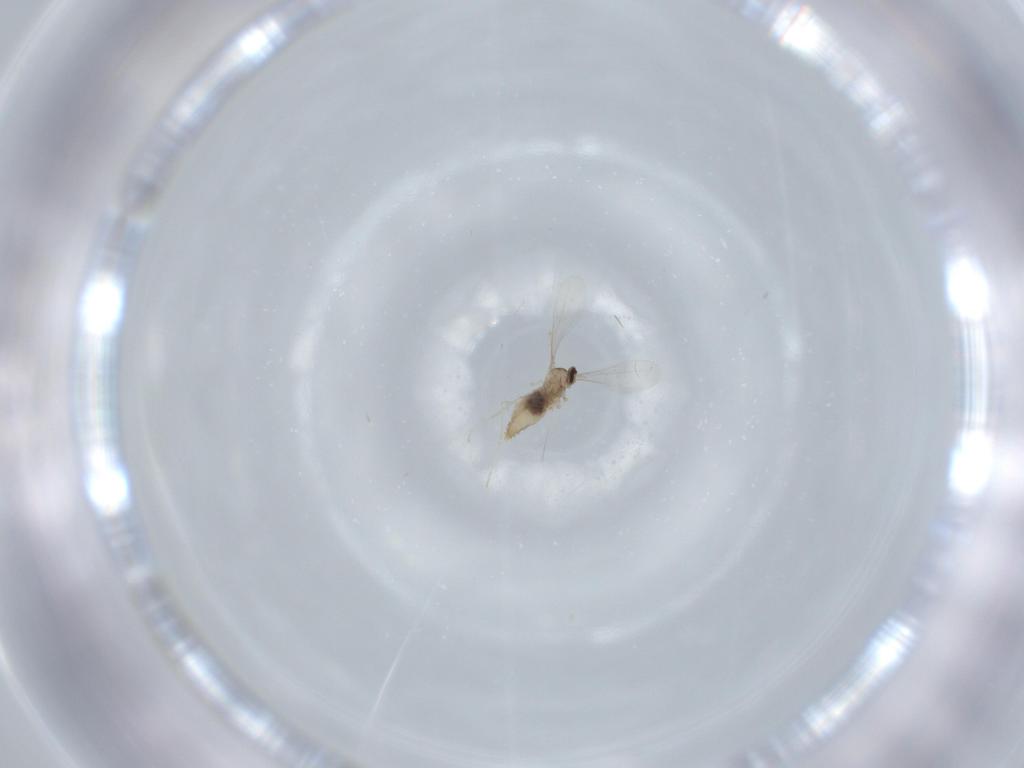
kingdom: Animalia
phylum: Arthropoda
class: Insecta
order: Diptera
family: Cecidomyiidae
